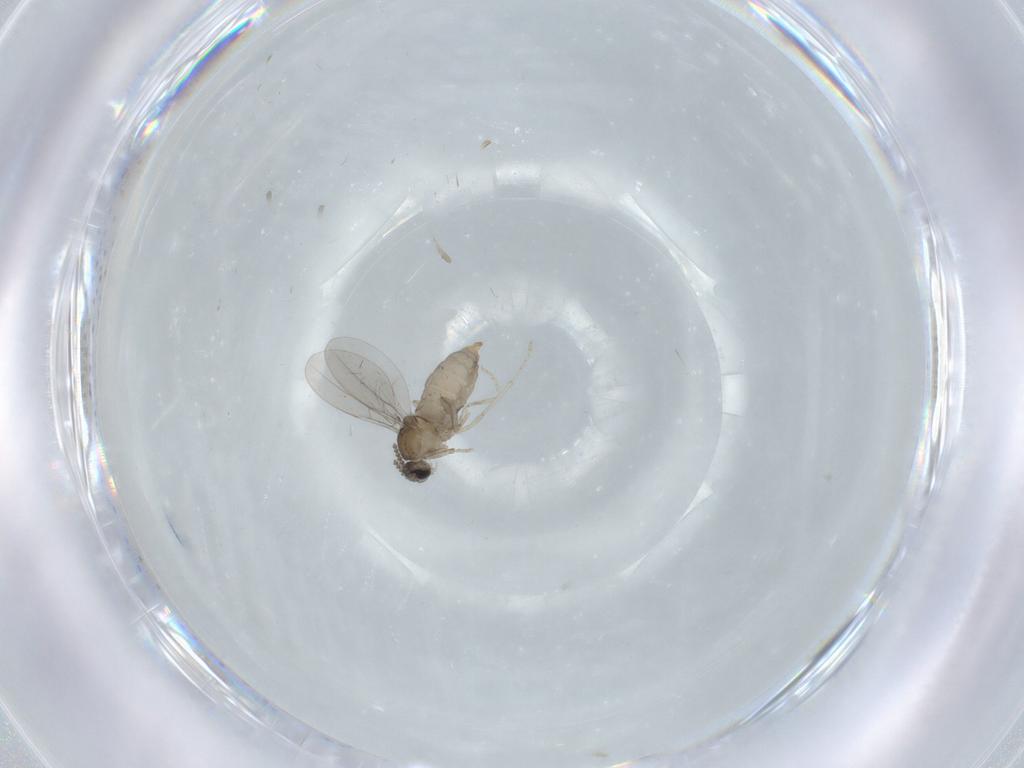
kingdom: Animalia
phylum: Arthropoda
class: Insecta
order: Diptera
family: Cecidomyiidae
